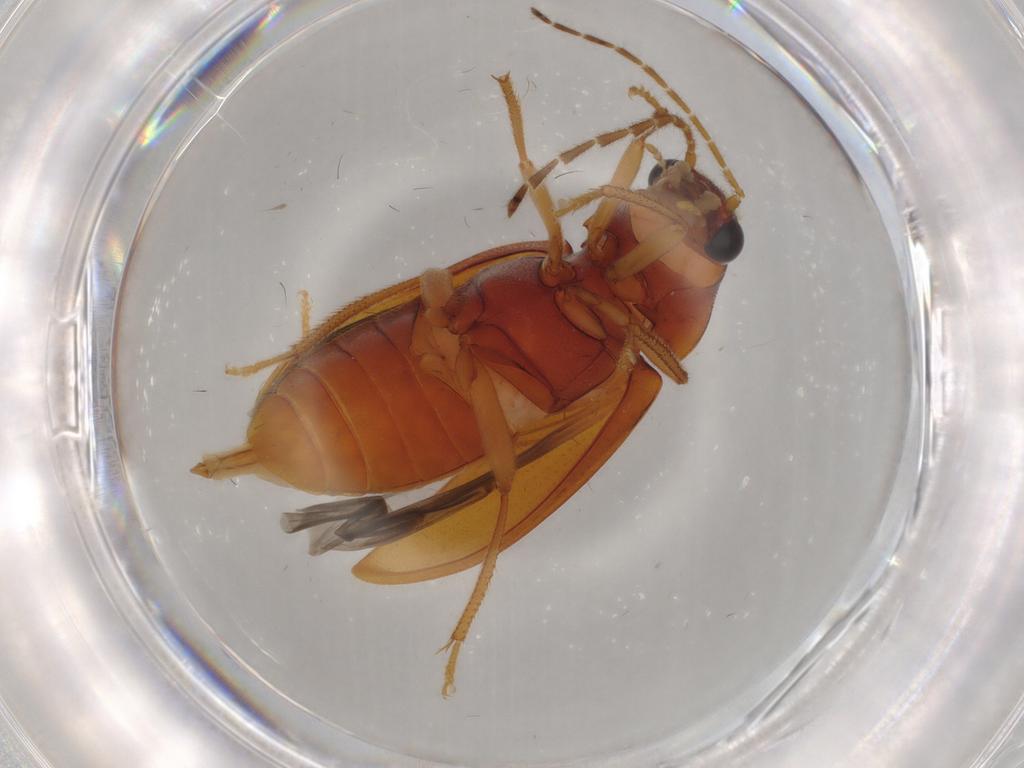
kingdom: Animalia
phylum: Arthropoda
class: Insecta
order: Coleoptera
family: Ptilodactylidae
